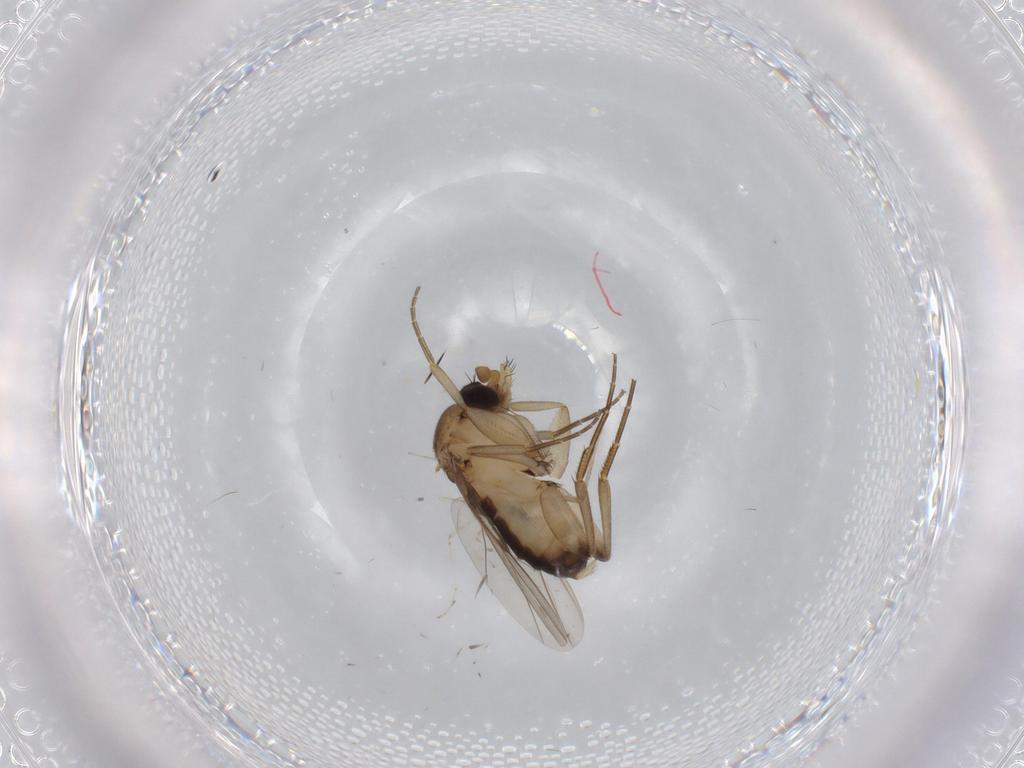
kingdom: Animalia
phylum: Arthropoda
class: Insecta
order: Diptera
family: Phoridae
